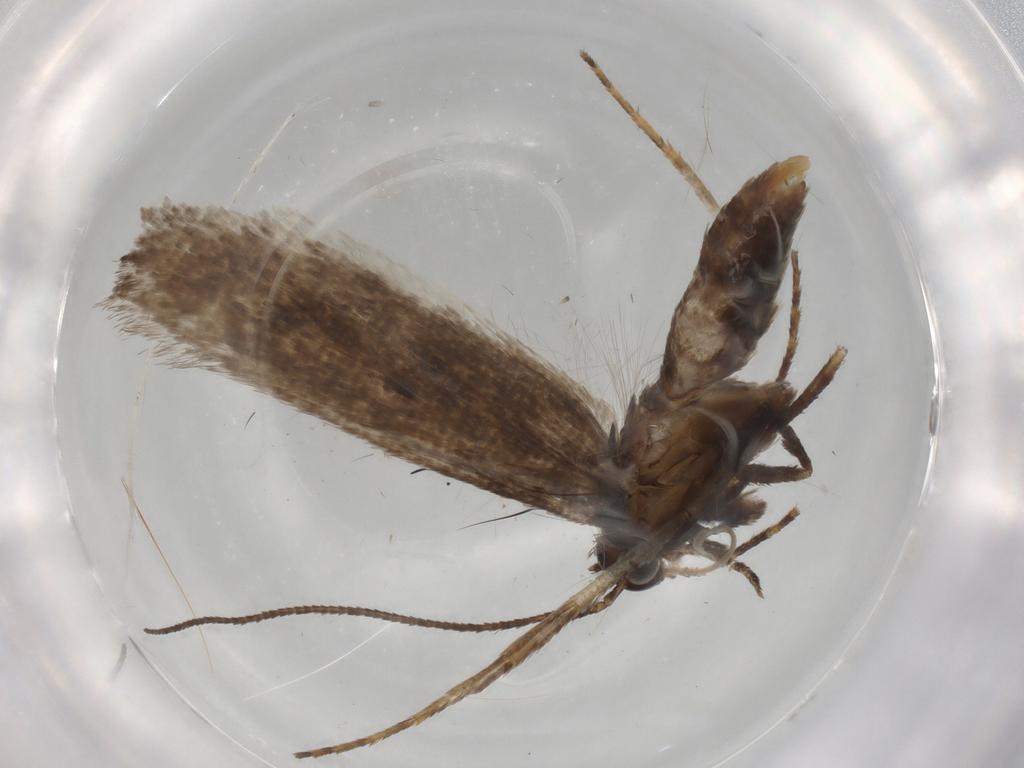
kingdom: Animalia
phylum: Arthropoda
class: Insecta
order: Lepidoptera
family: Gelechiidae
